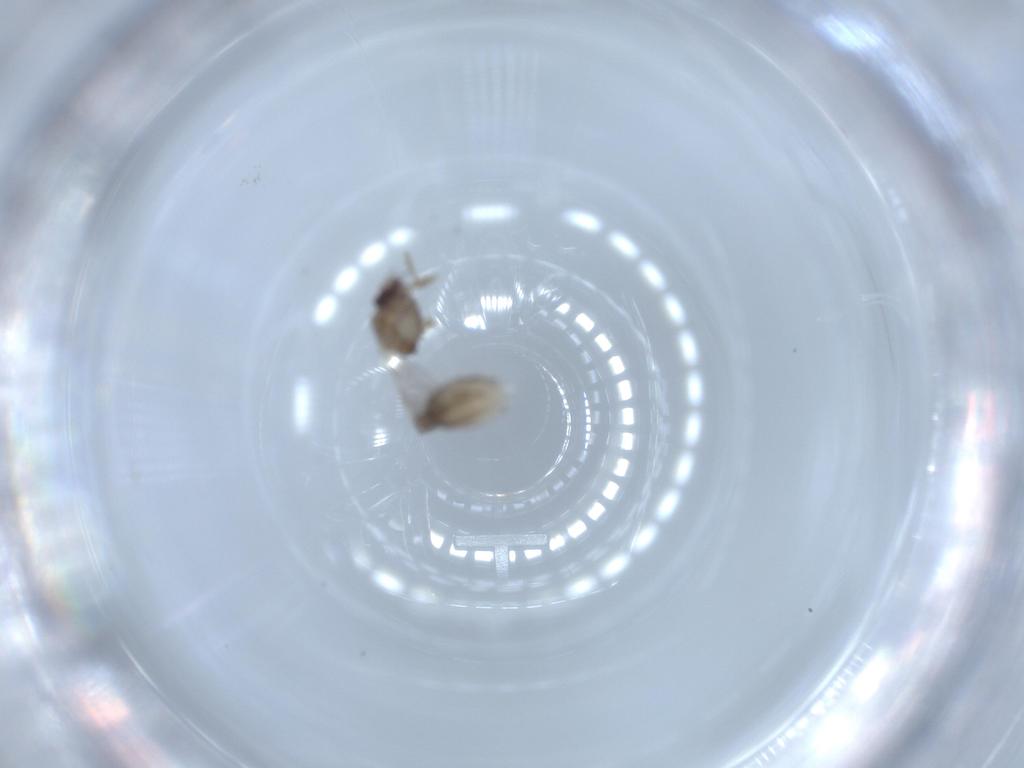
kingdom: Animalia
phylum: Arthropoda
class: Insecta
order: Diptera
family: Ceratopogonidae
